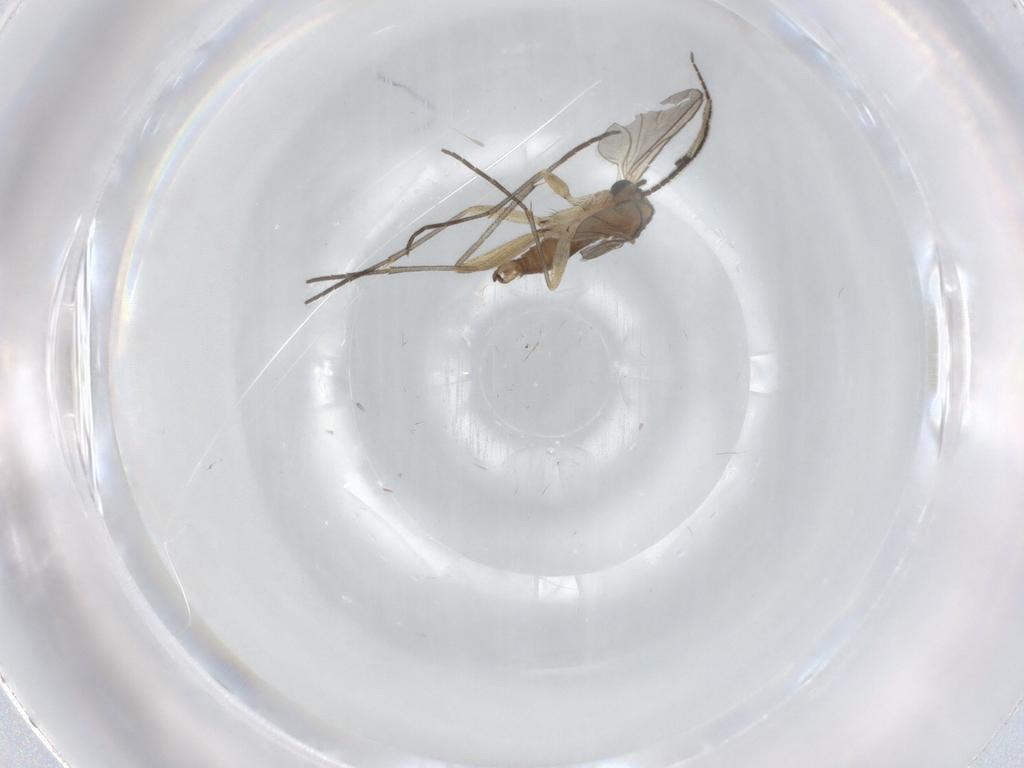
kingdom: Animalia
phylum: Arthropoda
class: Insecta
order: Diptera
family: Sciaridae
